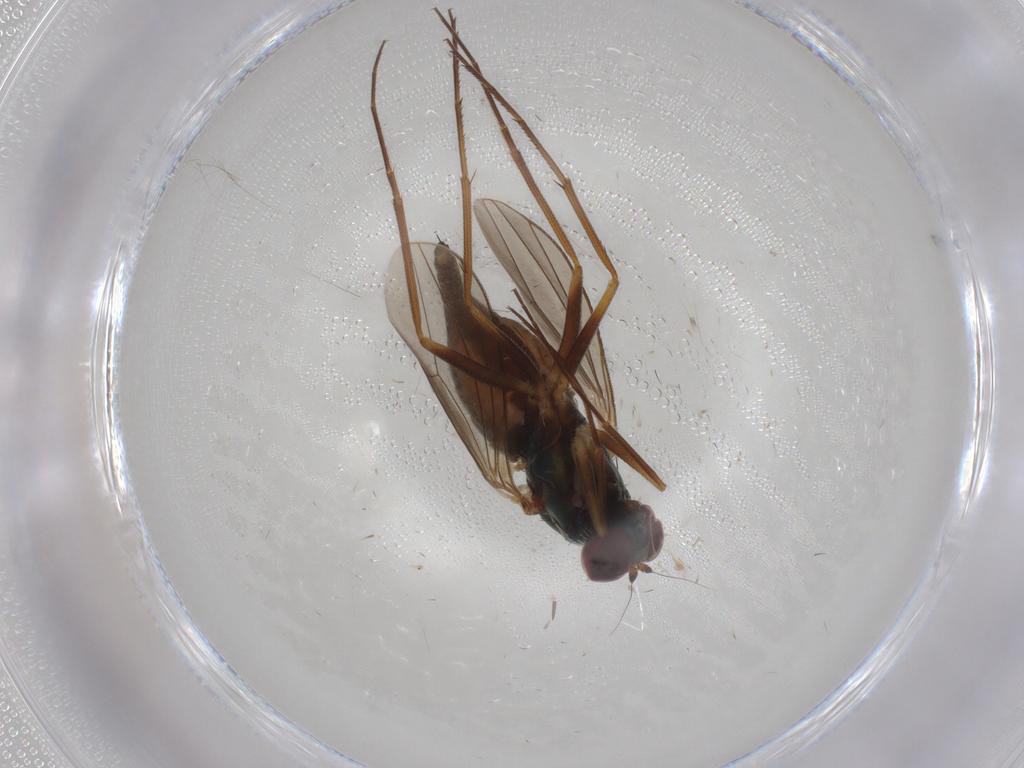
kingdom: Animalia
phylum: Arthropoda
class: Insecta
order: Diptera
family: Dolichopodidae
